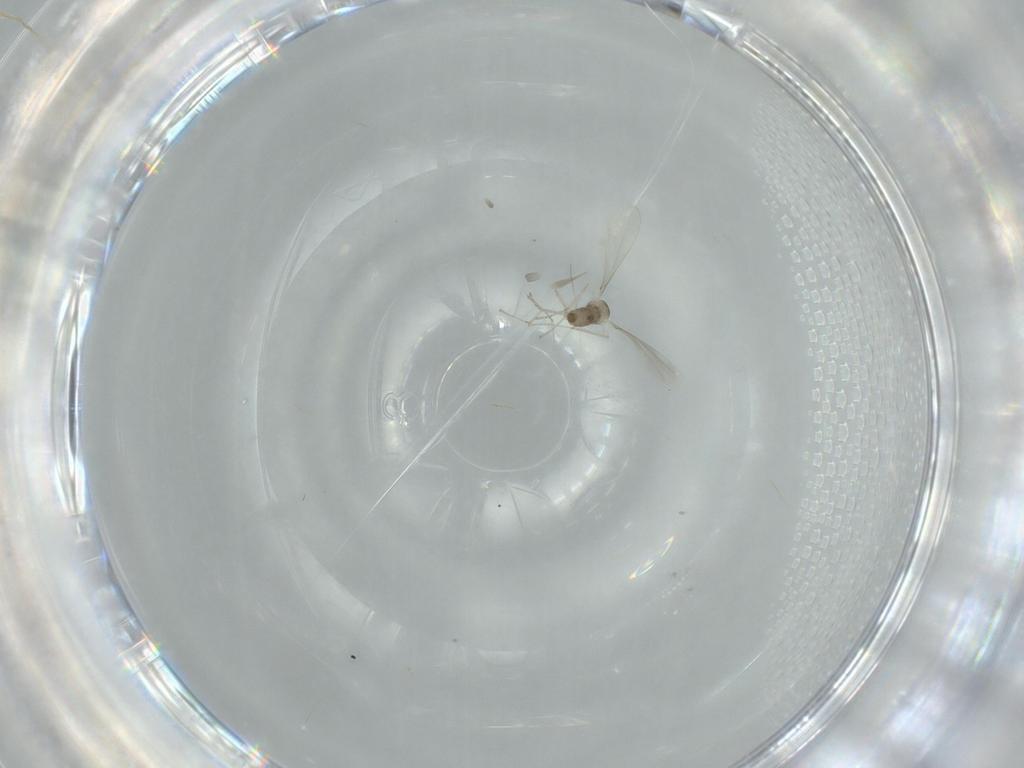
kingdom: Animalia
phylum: Arthropoda
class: Insecta
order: Diptera
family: Cecidomyiidae
